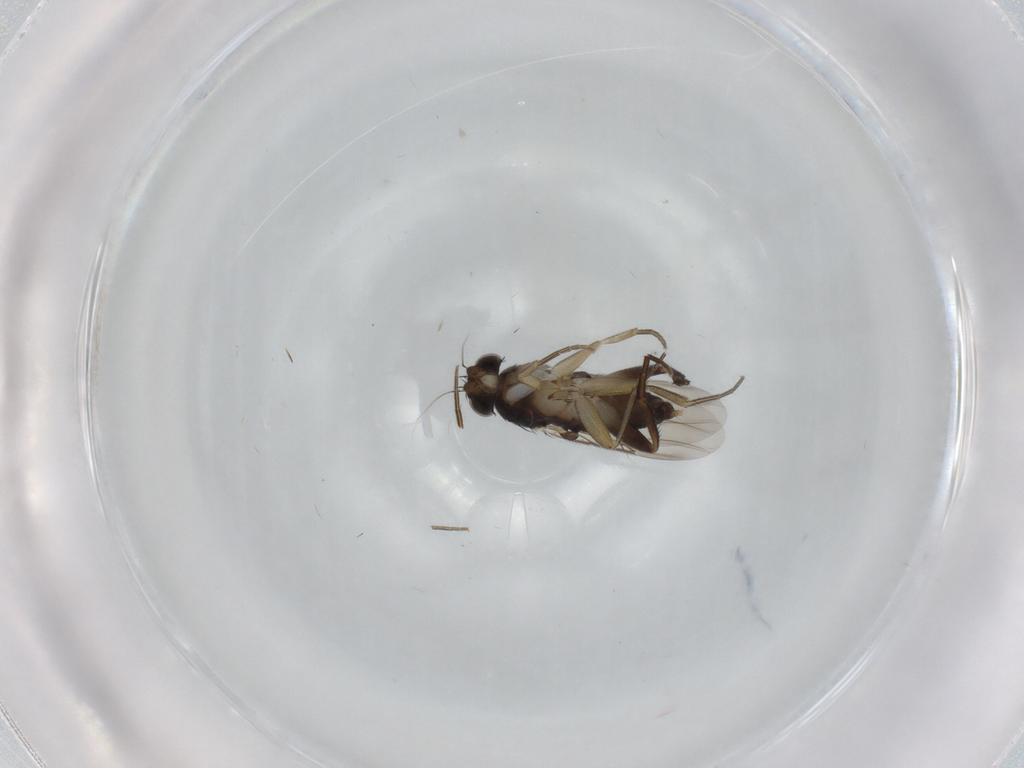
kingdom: Animalia
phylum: Arthropoda
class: Insecta
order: Diptera
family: Phoridae
